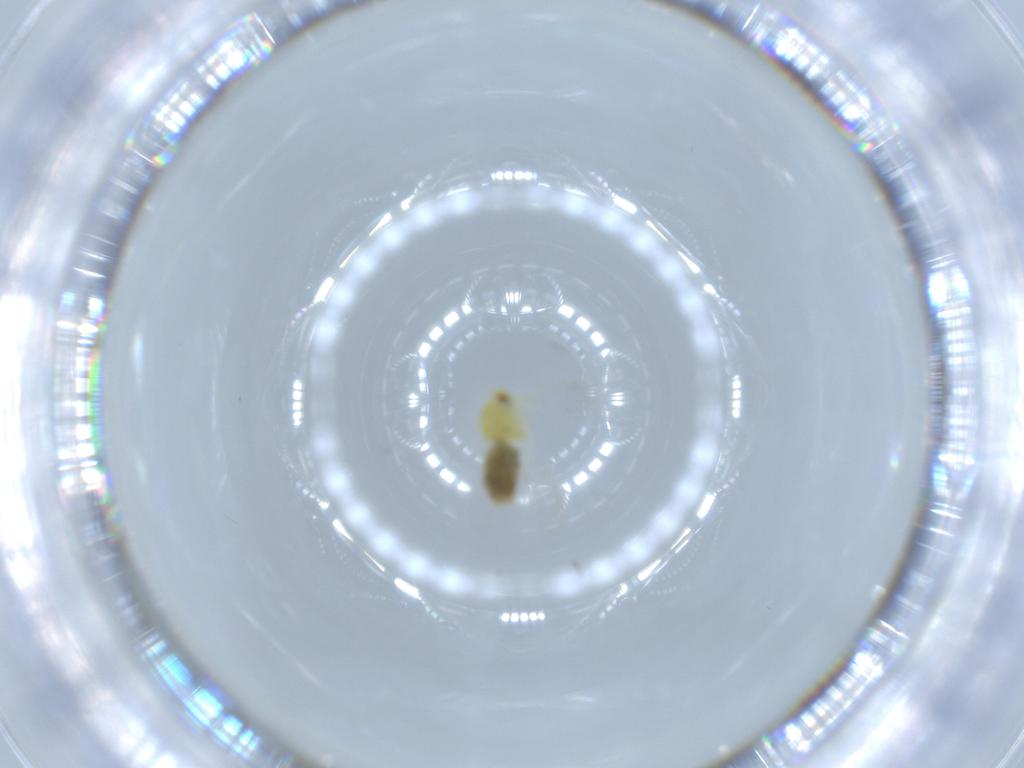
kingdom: Animalia
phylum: Arthropoda
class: Insecta
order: Hemiptera
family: Aleyrodidae
